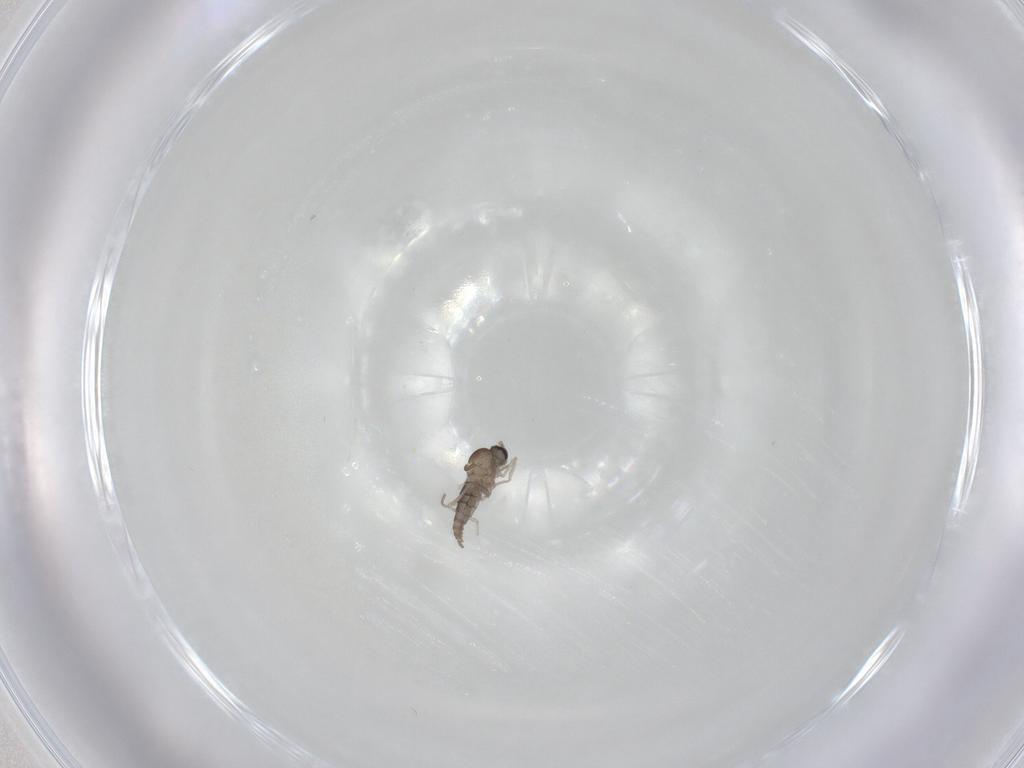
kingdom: Animalia
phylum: Arthropoda
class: Insecta
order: Diptera
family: Cecidomyiidae
